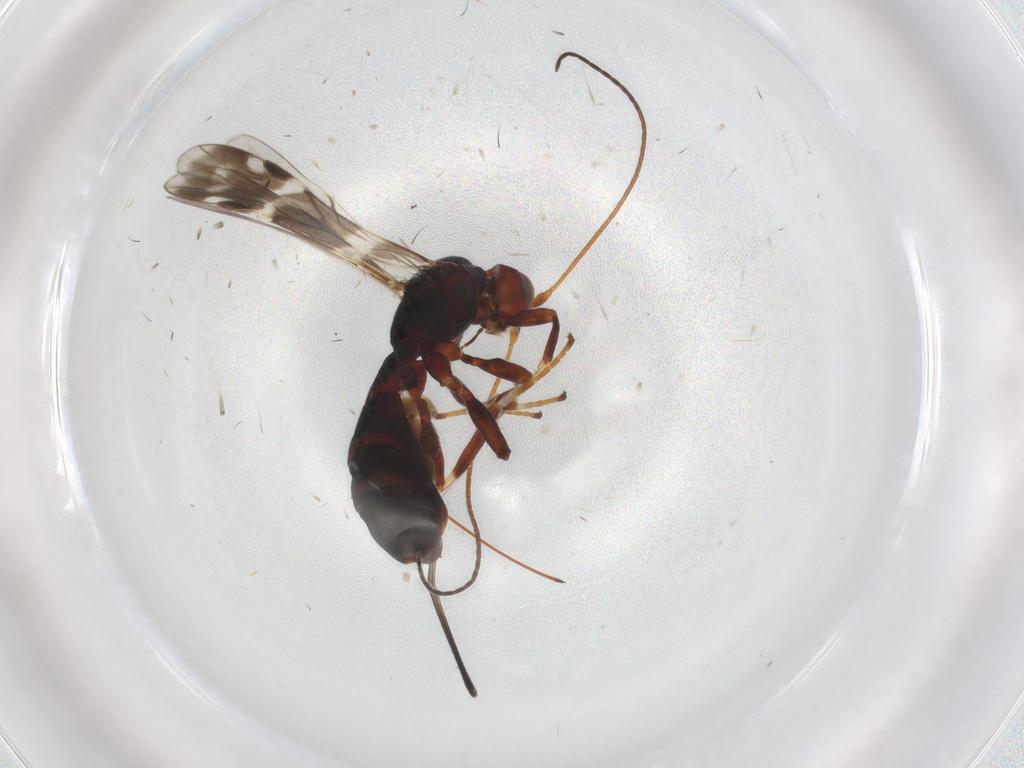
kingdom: Animalia
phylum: Arthropoda
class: Insecta
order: Hymenoptera
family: Braconidae
